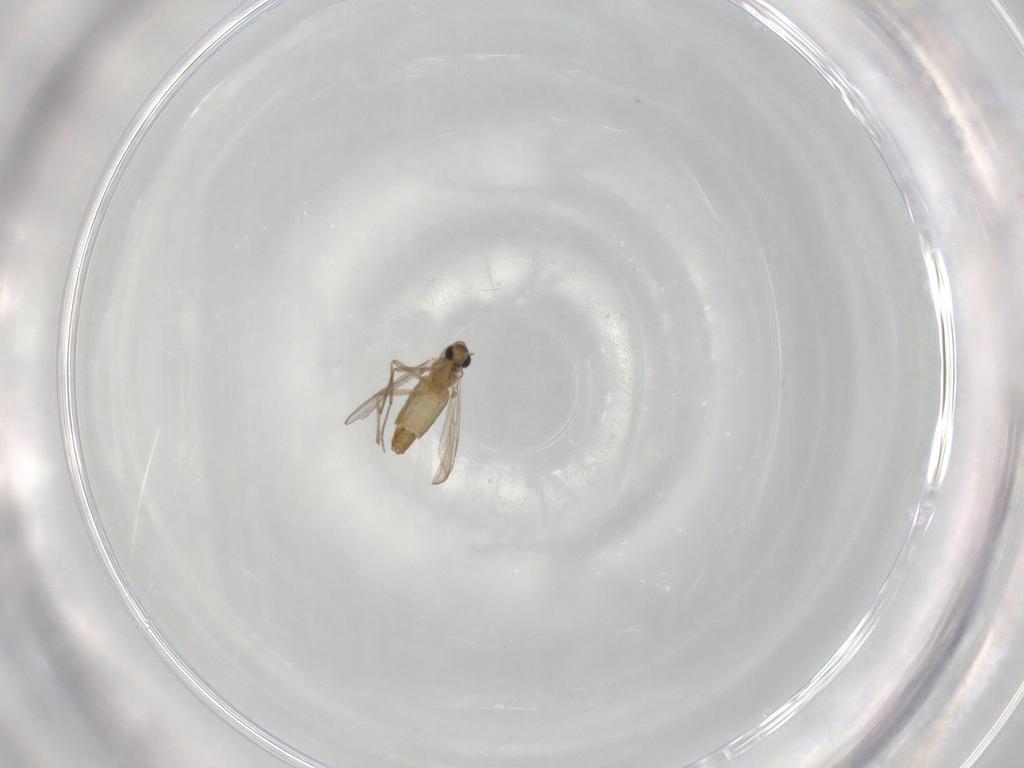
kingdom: Animalia
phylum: Arthropoda
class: Insecta
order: Diptera
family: Chironomidae
